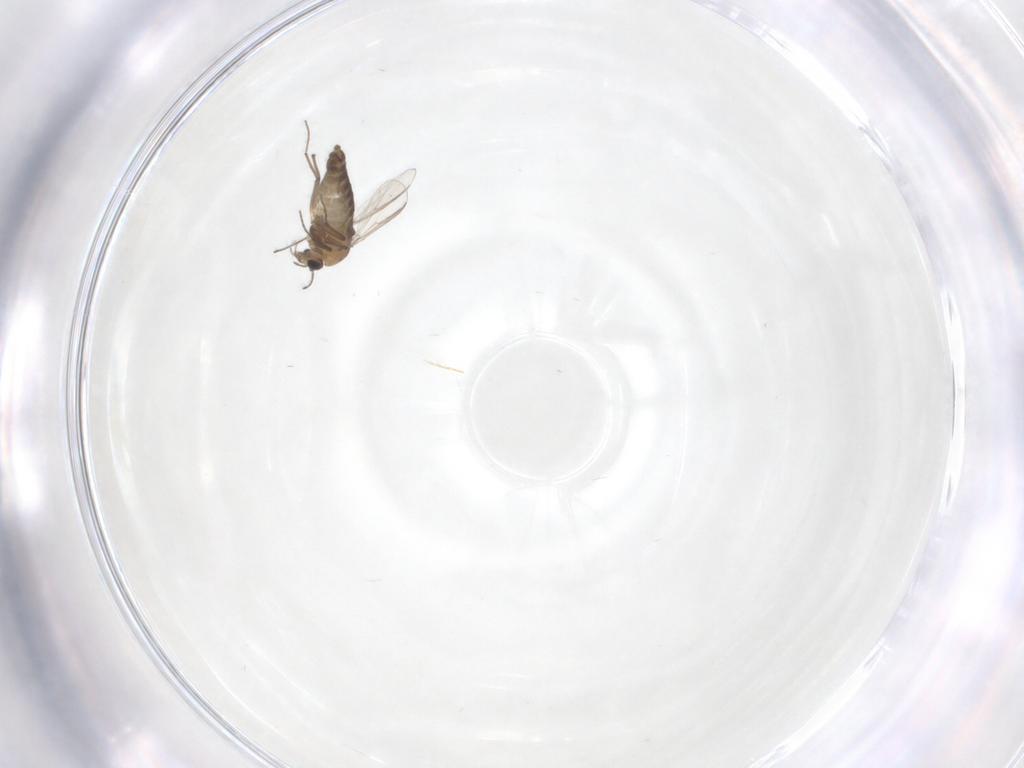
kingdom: Animalia
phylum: Arthropoda
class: Insecta
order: Diptera
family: Chironomidae
